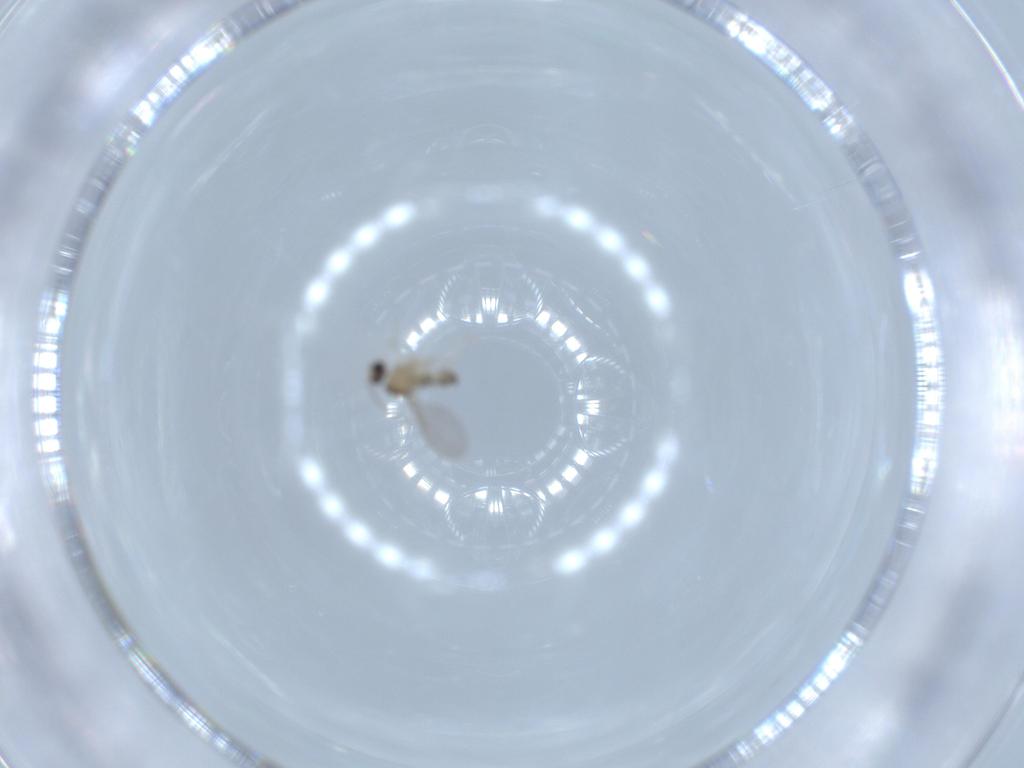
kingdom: Animalia
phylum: Arthropoda
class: Insecta
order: Diptera
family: Cecidomyiidae
